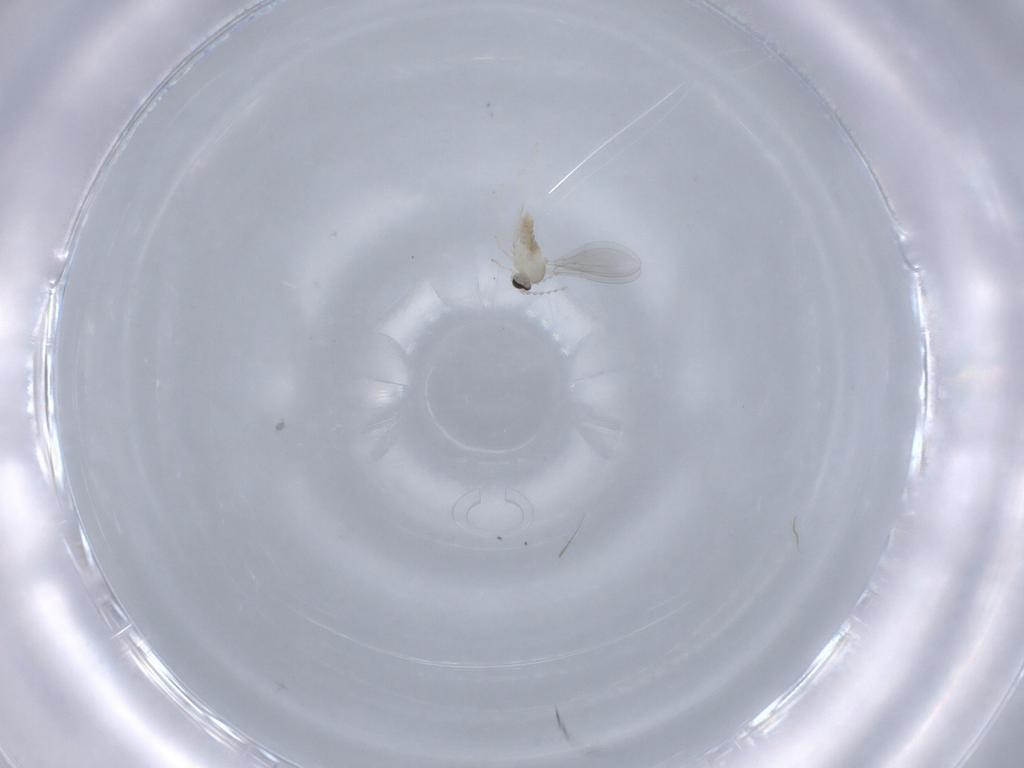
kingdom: Animalia
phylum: Arthropoda
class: Insecta
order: Diptera
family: Cecidomyiidae
